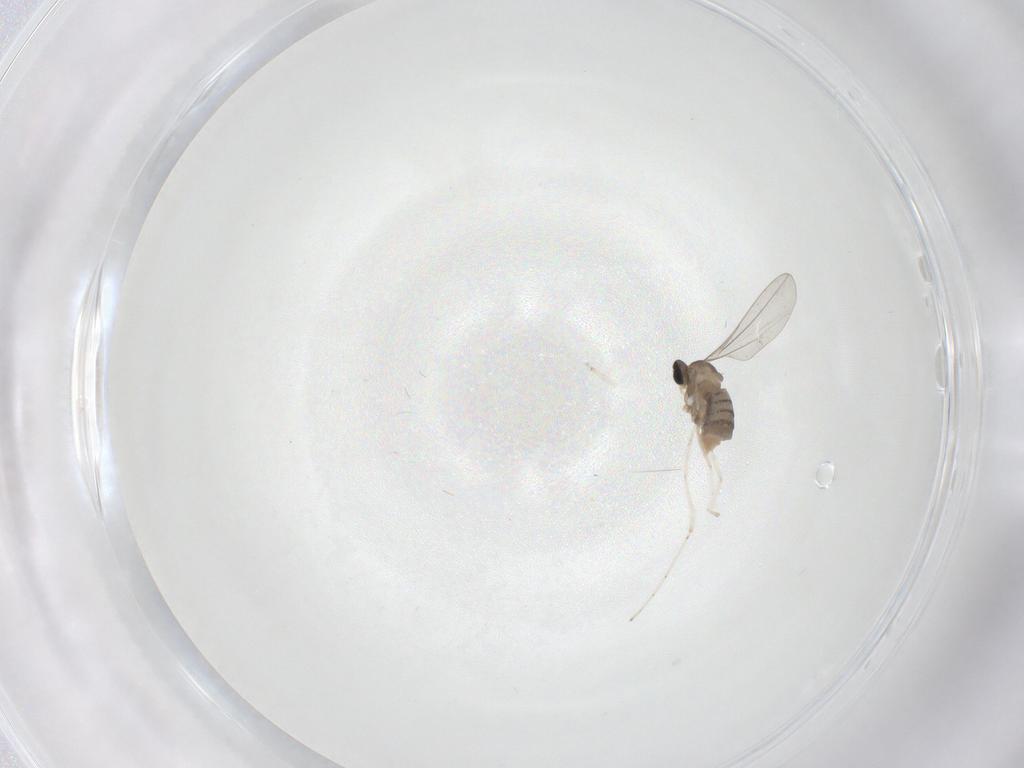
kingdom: Animalia
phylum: Arthropoda
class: Insecta
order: Diptera
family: Cecidomyiidae
